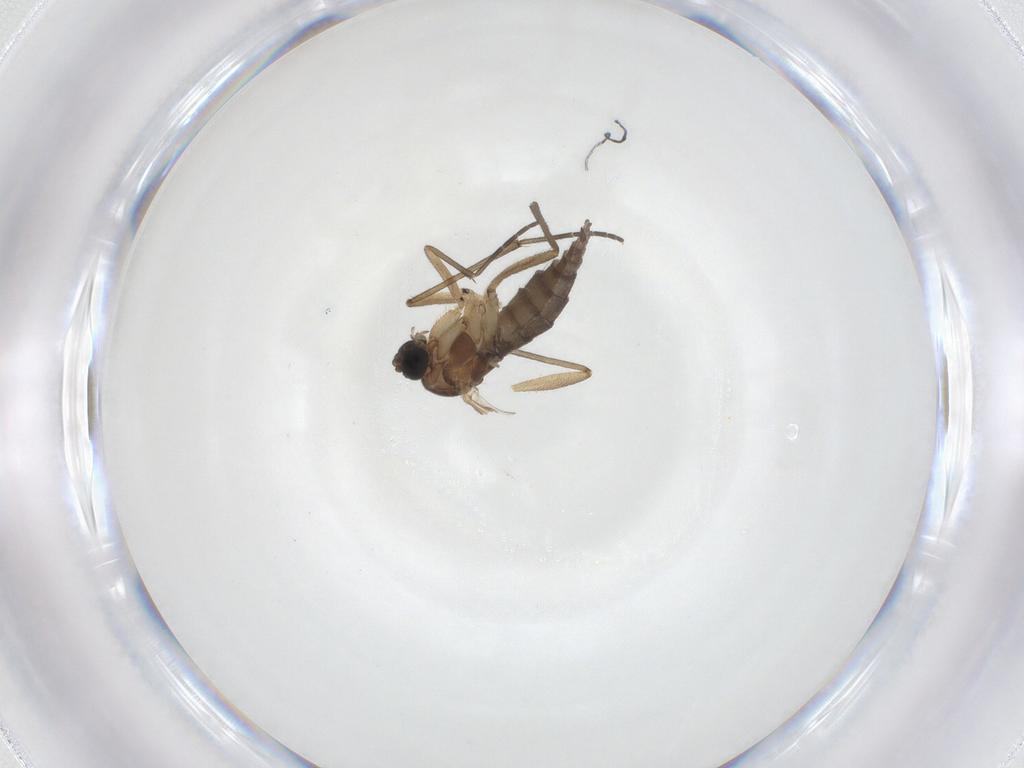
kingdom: Animalia
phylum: Arthropoda
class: Insecta
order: Diptera
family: Sciaridae
